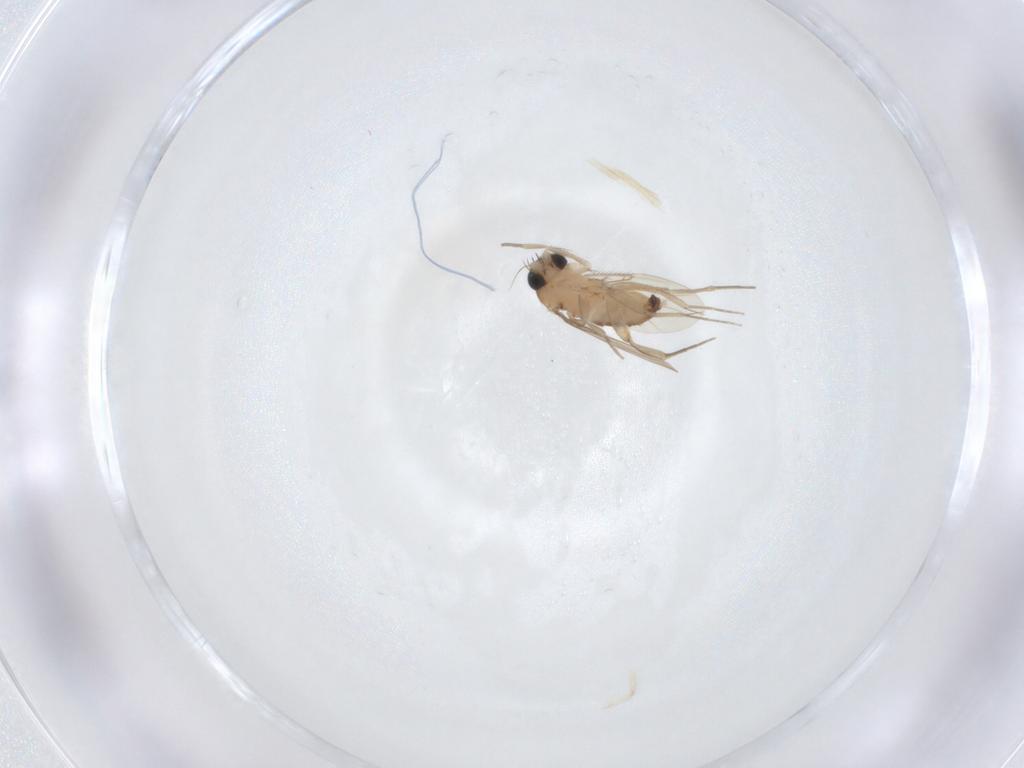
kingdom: Animalia
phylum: Arthropoda
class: Insecta
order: Diptera
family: Phoridae
